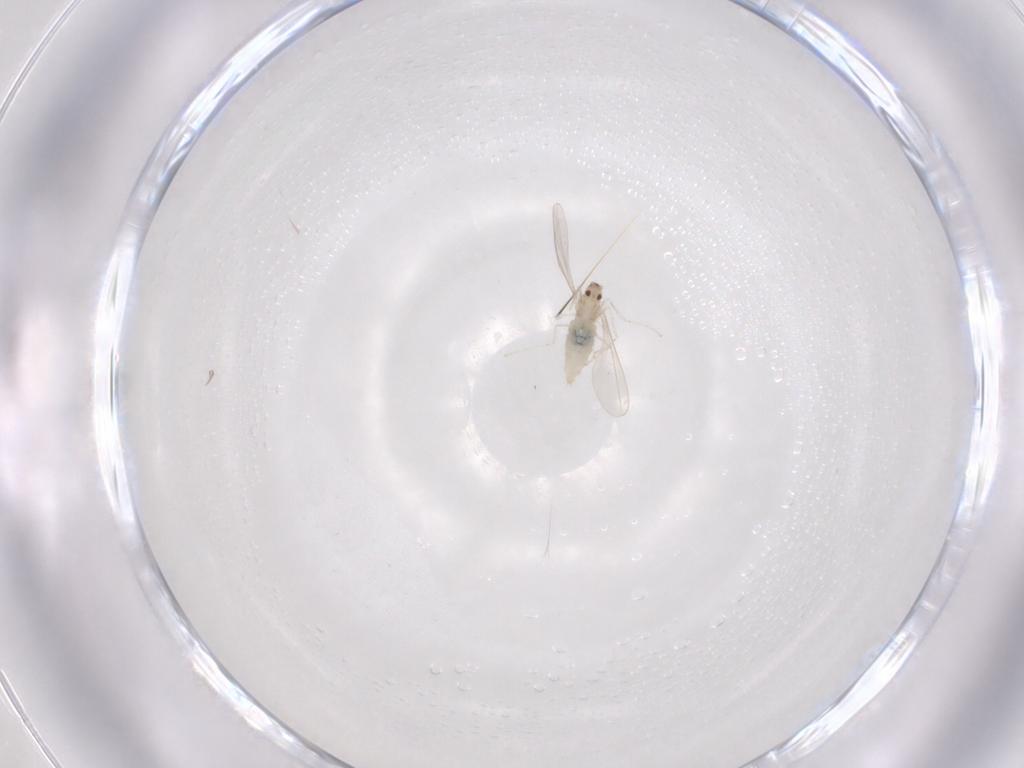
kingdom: Animalia
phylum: Arthropoda
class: Insecta
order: Diptera
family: Cecidomyiidae
